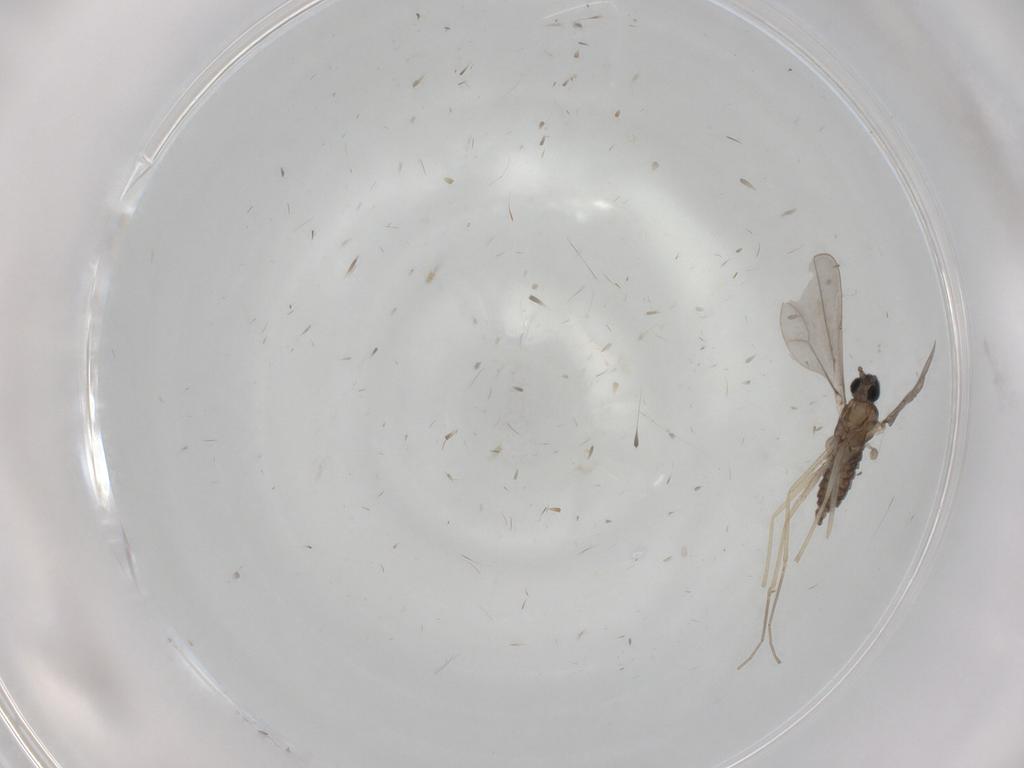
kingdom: Animalia
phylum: Arthropoda
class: Insecta
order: Diptera
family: Cecidomyiidae
